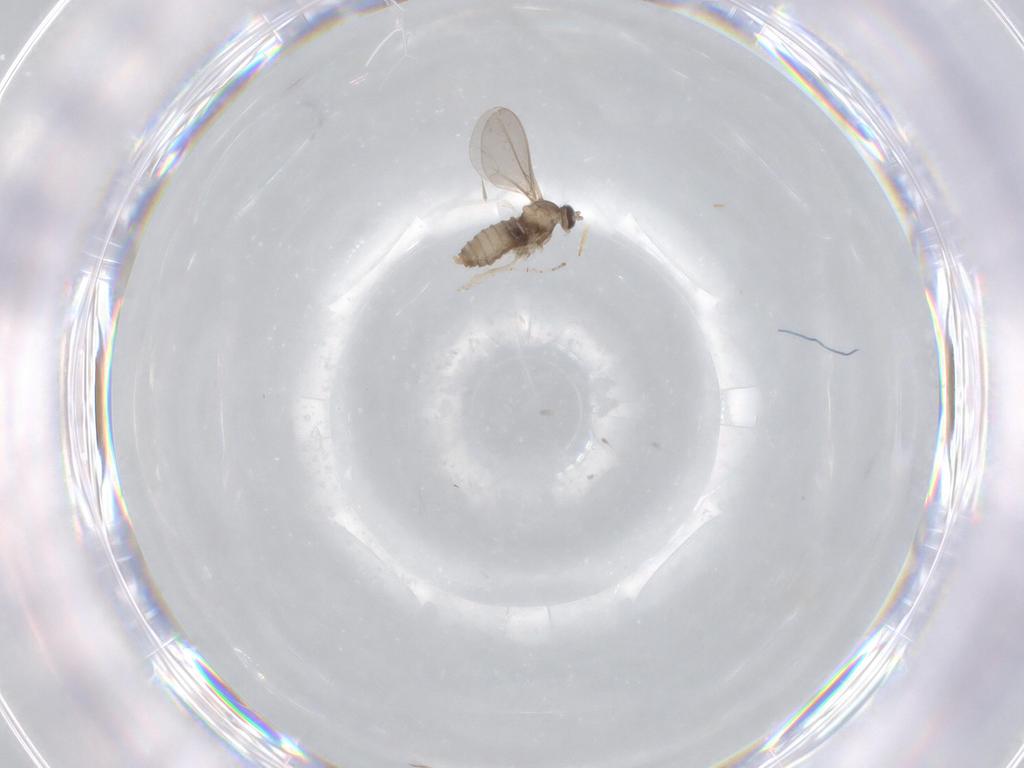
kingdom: Animalia
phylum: Arthropoda
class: Insecta
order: Diptera
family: Cecidomyiidae
